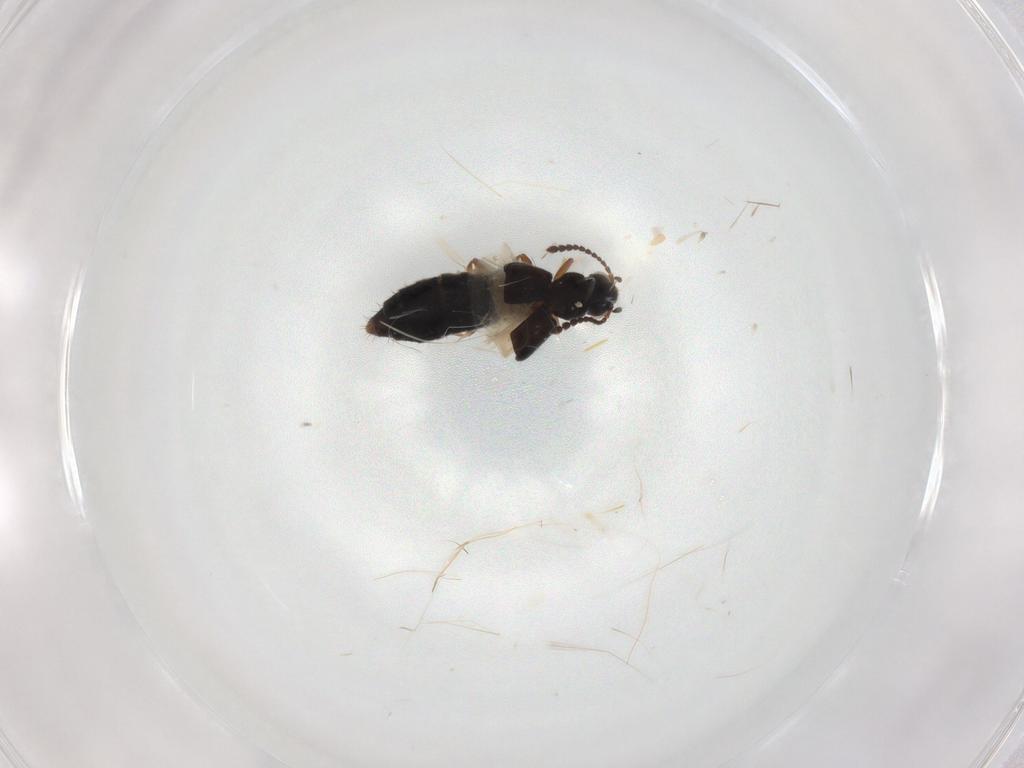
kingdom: Animalia
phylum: Arthropoda
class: Insecta
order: Coleoptera
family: Staphylinidae
